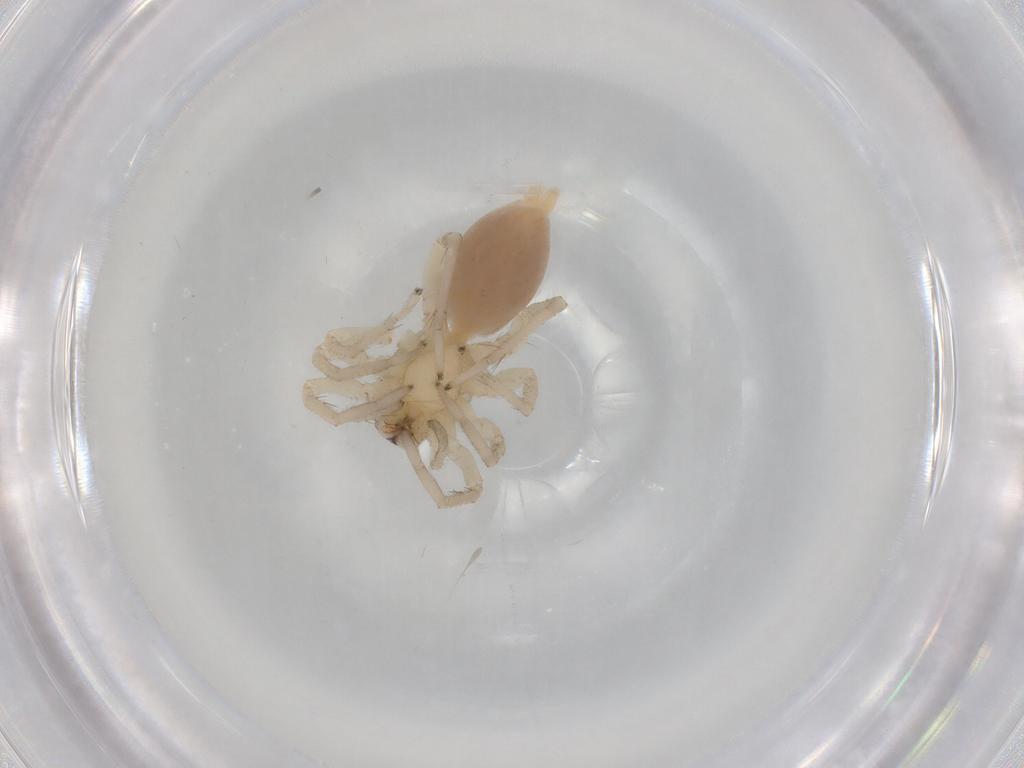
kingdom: Animalia
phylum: Arthropoda
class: Arachnida
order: Araneae
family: Clubionidae
